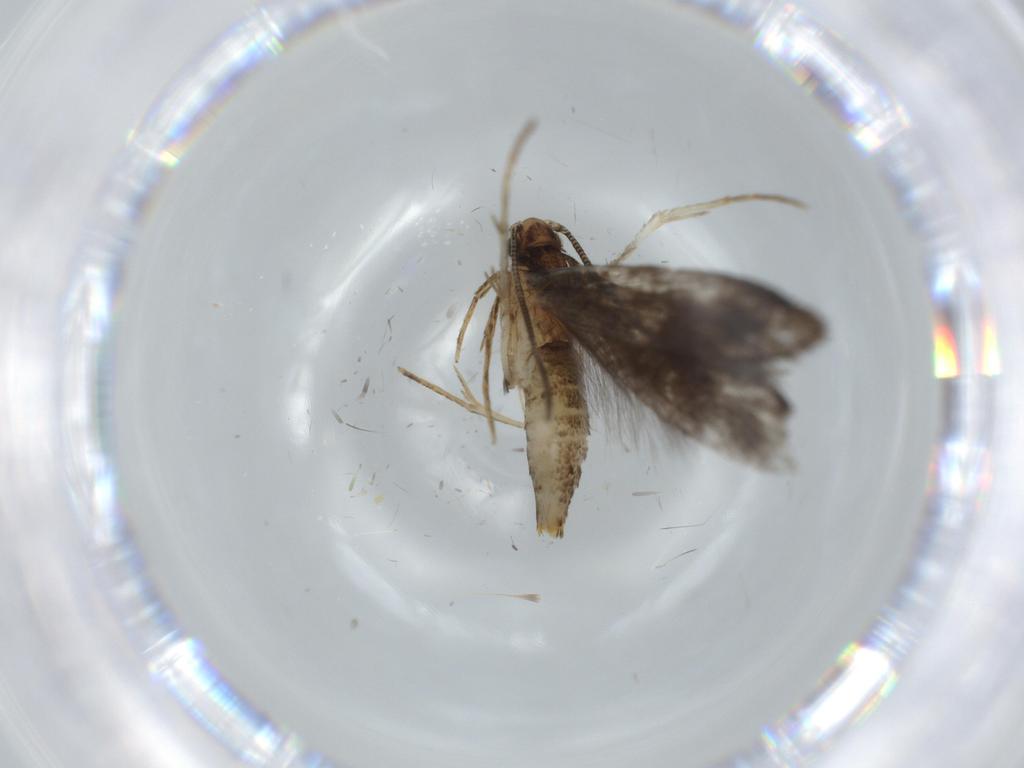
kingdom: Animalia
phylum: Arthropoda
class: Insecta
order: Lepidoptera
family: Tineidae
